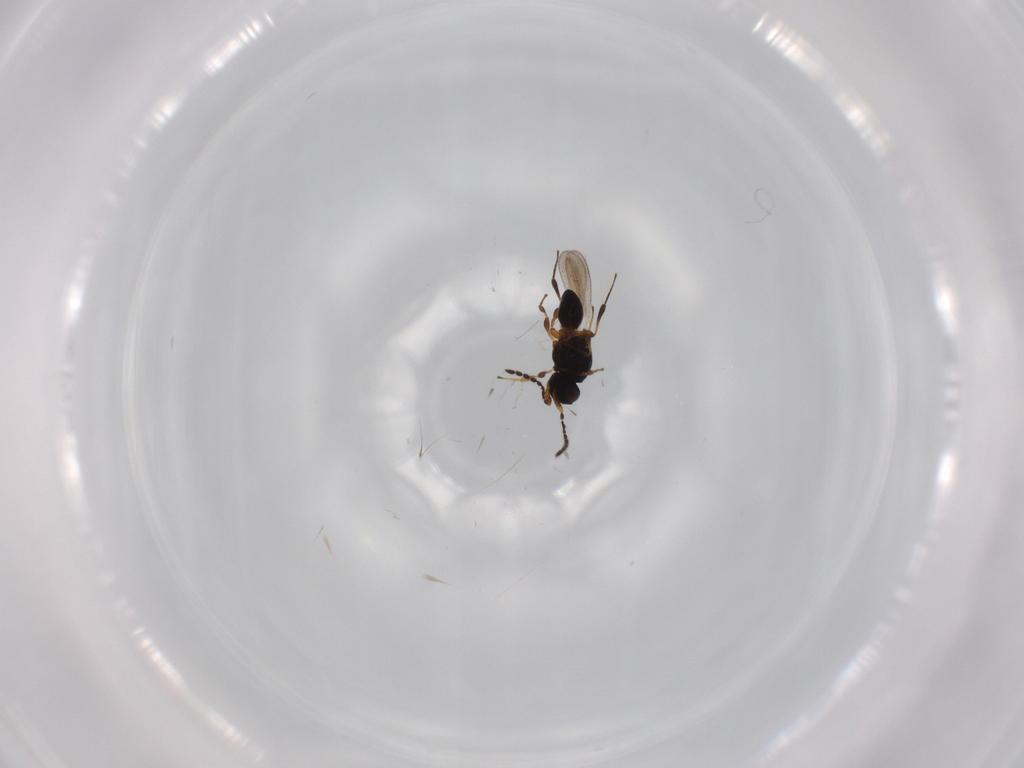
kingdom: Animalia
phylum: Arthropoda
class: Insecta
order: Hymenoptera
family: Platygastridae
